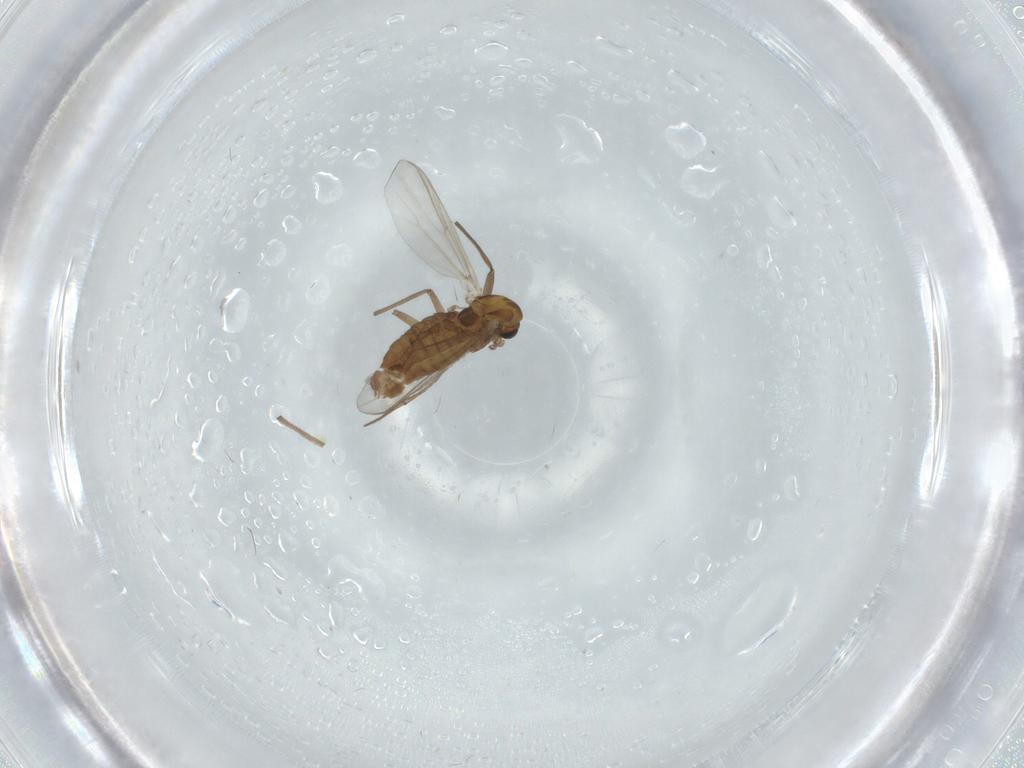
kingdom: Animalia
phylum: Arthropoda
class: Insecta
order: Diptera
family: Chironomidae
